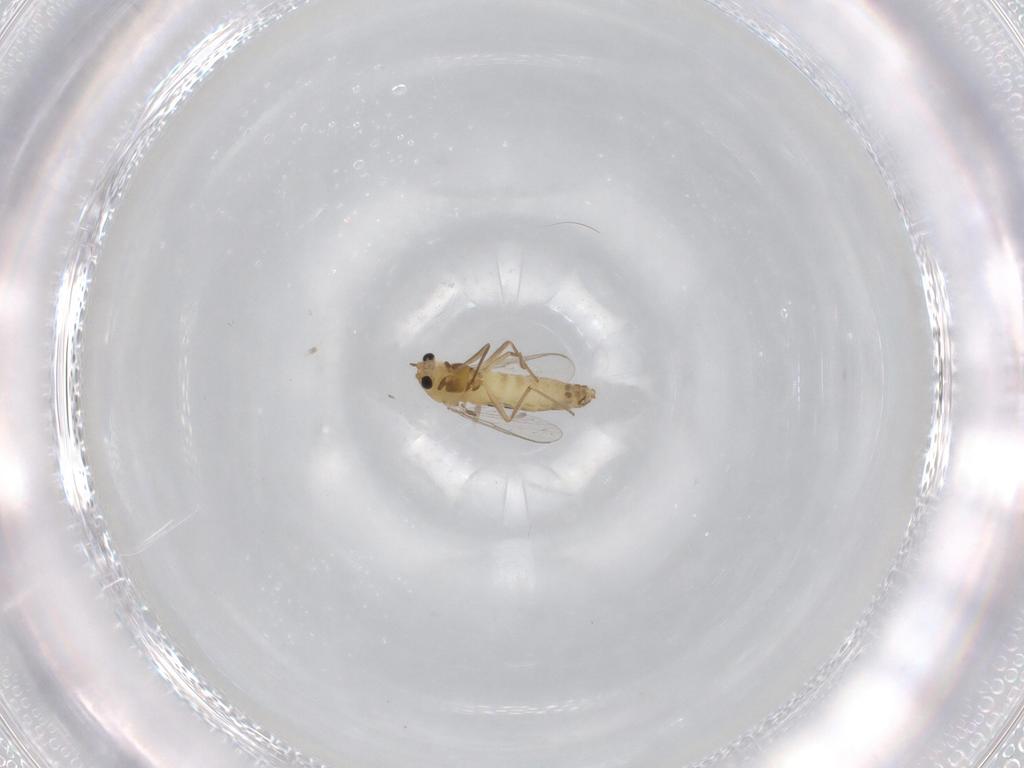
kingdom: Animalia
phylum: Arthropoda
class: Insecta
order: Diptera
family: Chironomidae
